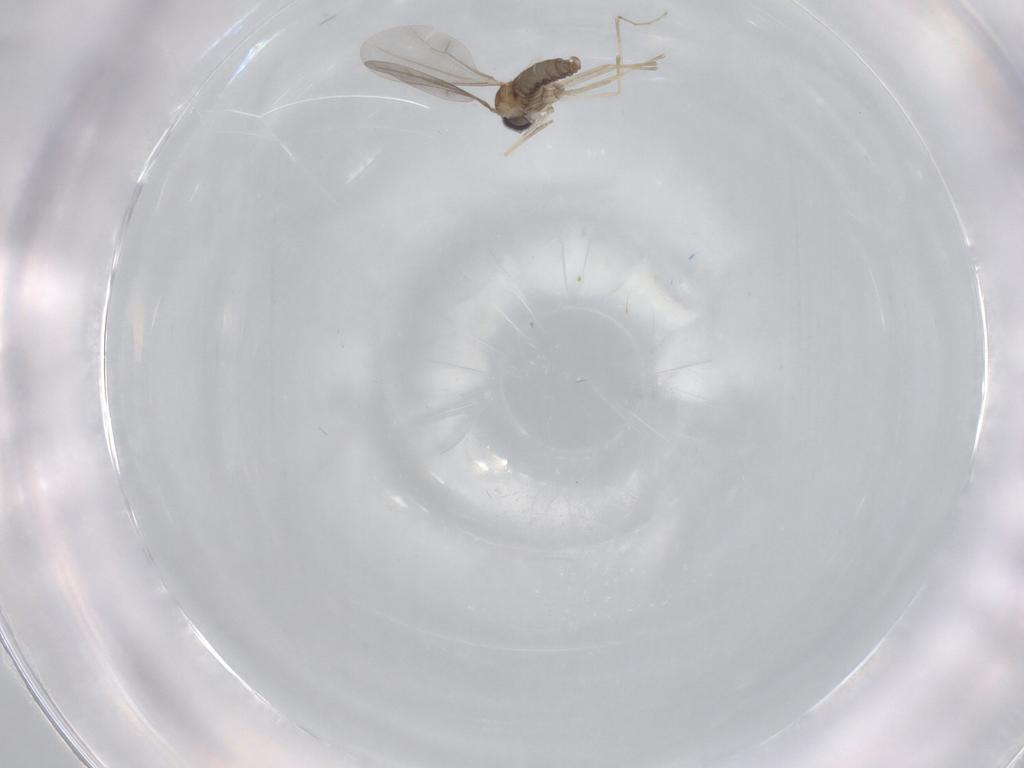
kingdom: Animalia
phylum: Arthropoda
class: Insecta
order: Diptera
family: Cecidomyiidae
